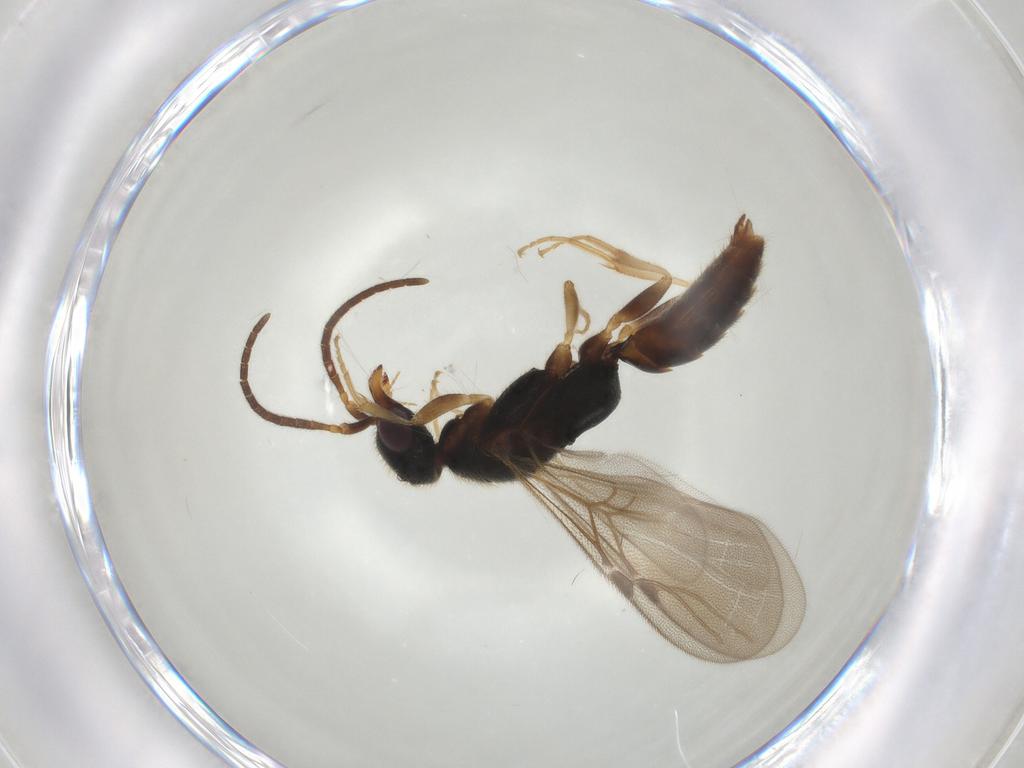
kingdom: Animalia
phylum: Arthropoda
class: Insecta
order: Hymenoptera
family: Bethylidae
